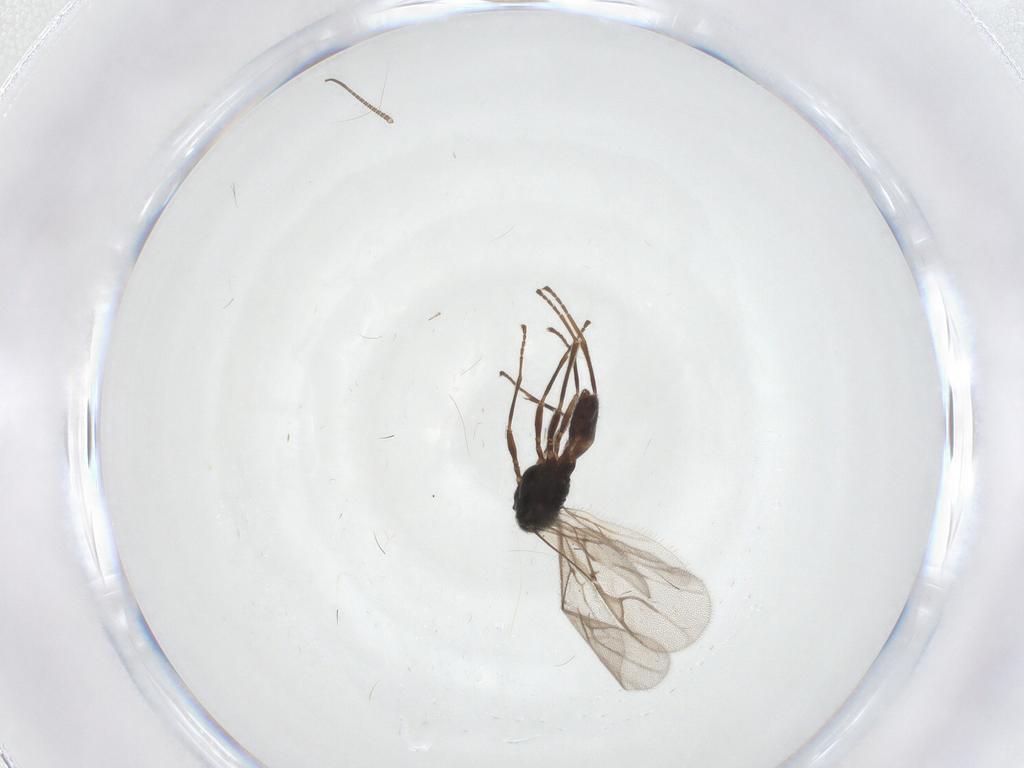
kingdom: Animalia
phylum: Arthropoda
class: Insecta
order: Hymenoptera
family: Braconidae
